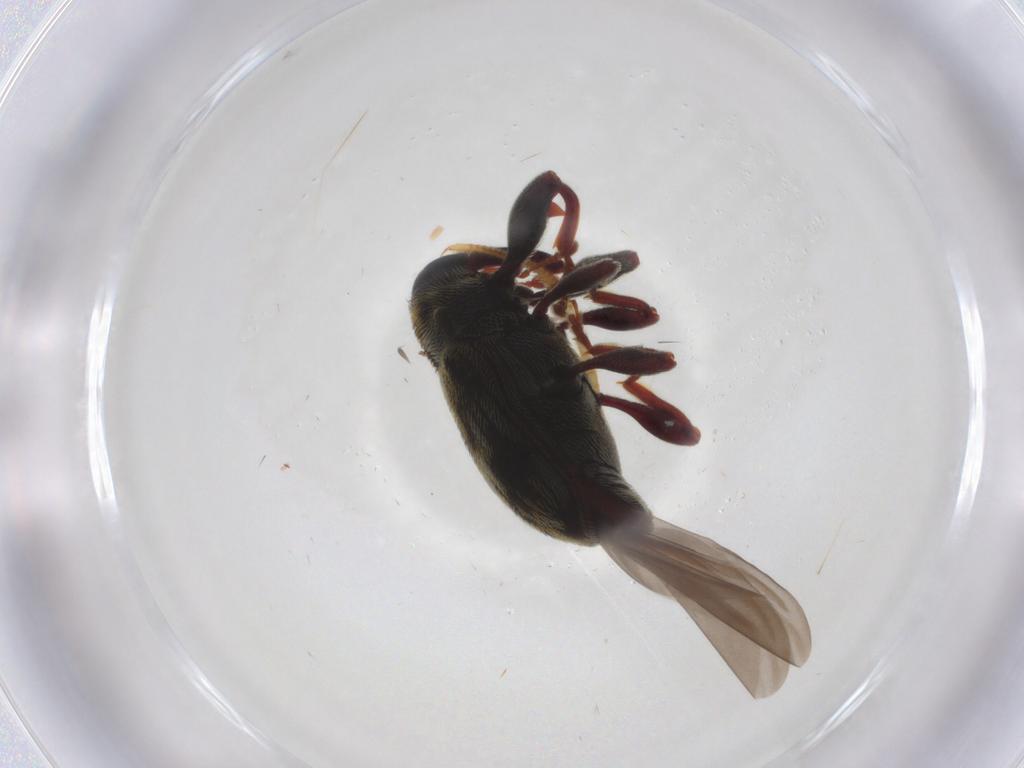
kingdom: Animalia
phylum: Arthropoda
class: Insecta
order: Coleoptera
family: Curculionidae
